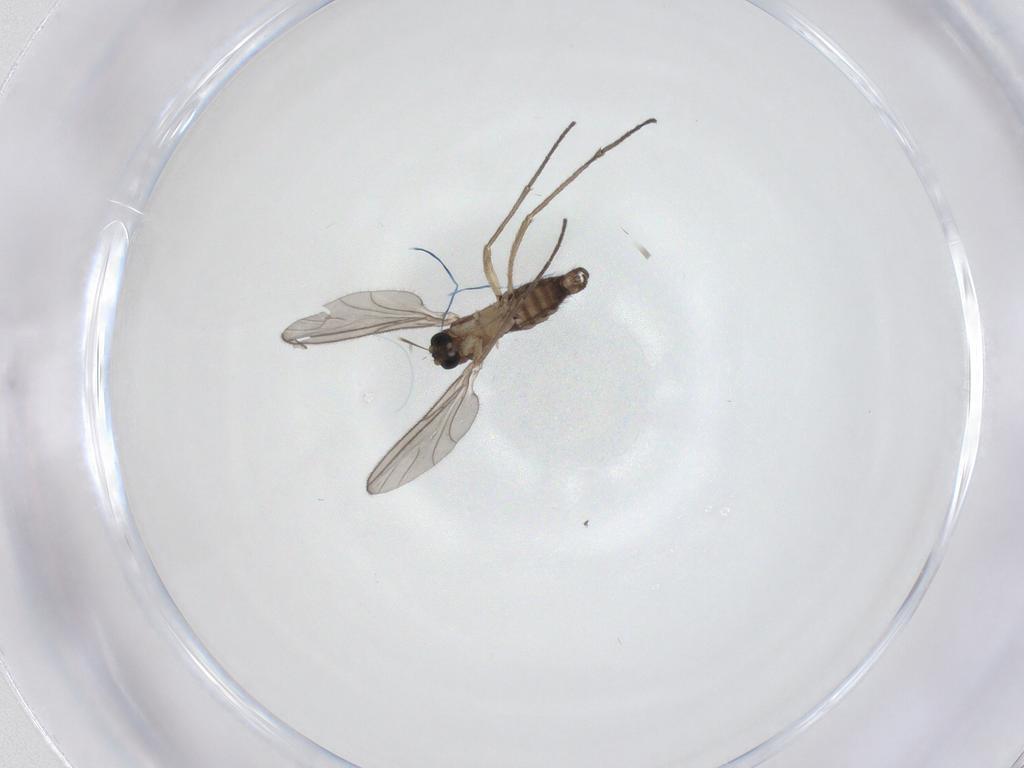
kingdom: Animalia
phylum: Arthropoda
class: Insecta
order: Diptera
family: Sciaridae
